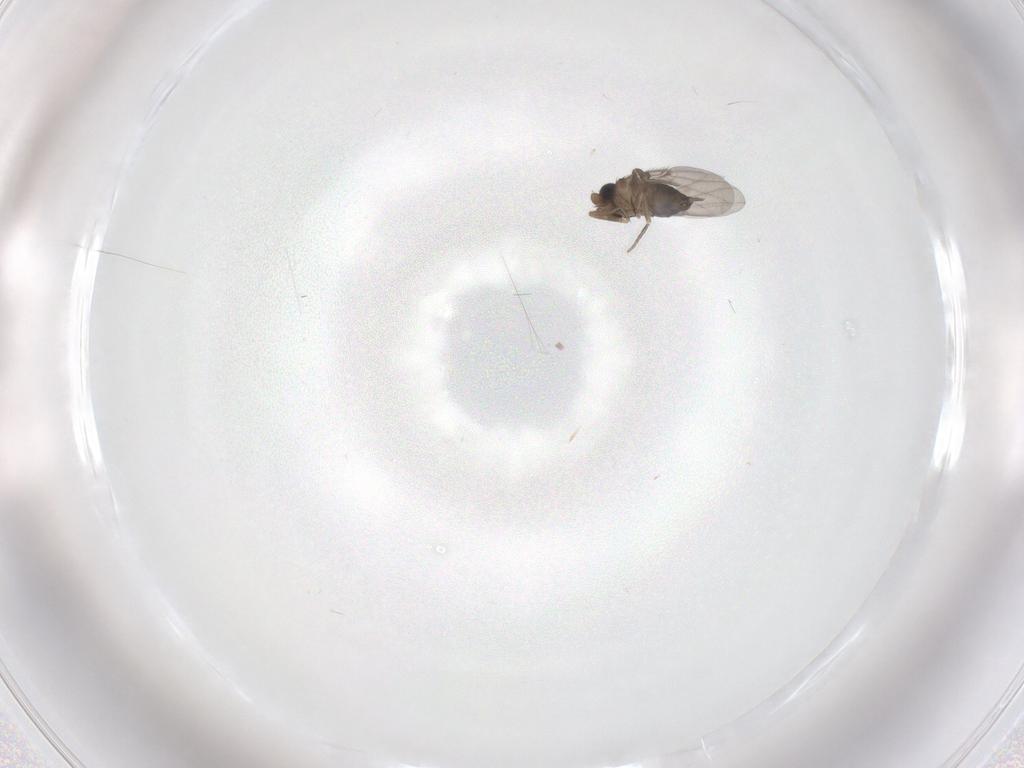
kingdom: Animalia
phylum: Arthropoda
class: Insecta
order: Diptera
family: Phoridae
